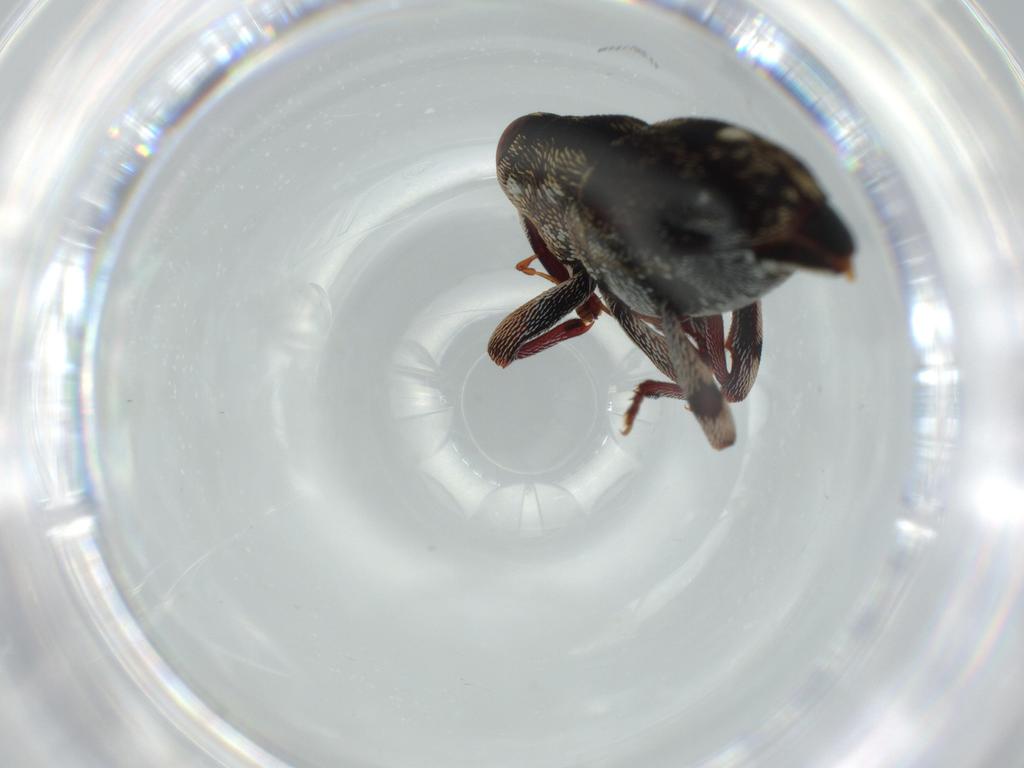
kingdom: Animalia
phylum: Arthropoda
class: Insecta
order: Coleoptera
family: Curculionidae
